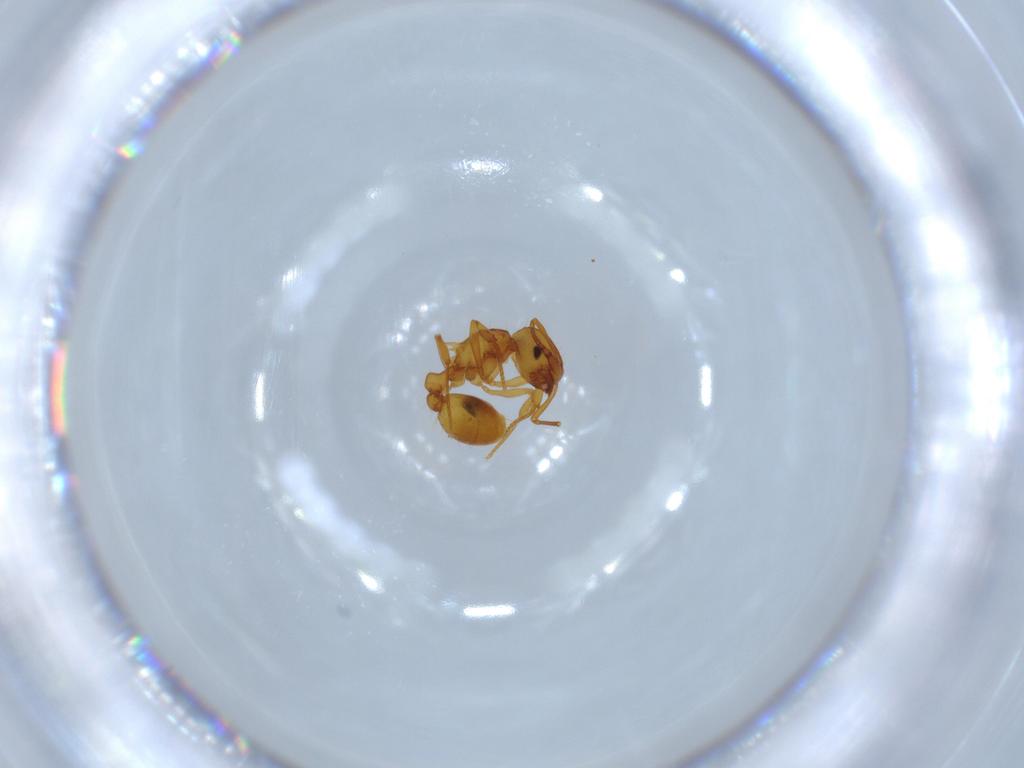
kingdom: Animalia
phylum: Arthropoda
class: Insecta
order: Hymenoptera
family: Formicidae
